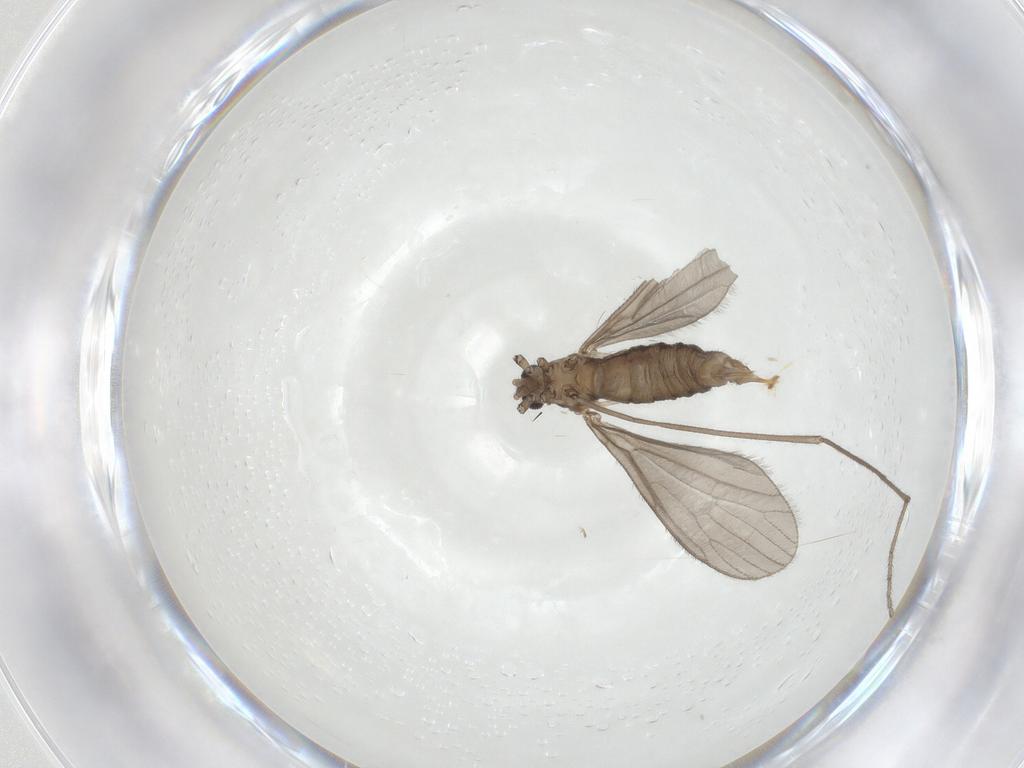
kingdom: Animalia
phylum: Arthropoda
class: Insecta
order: Diptera
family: Limoniidae
